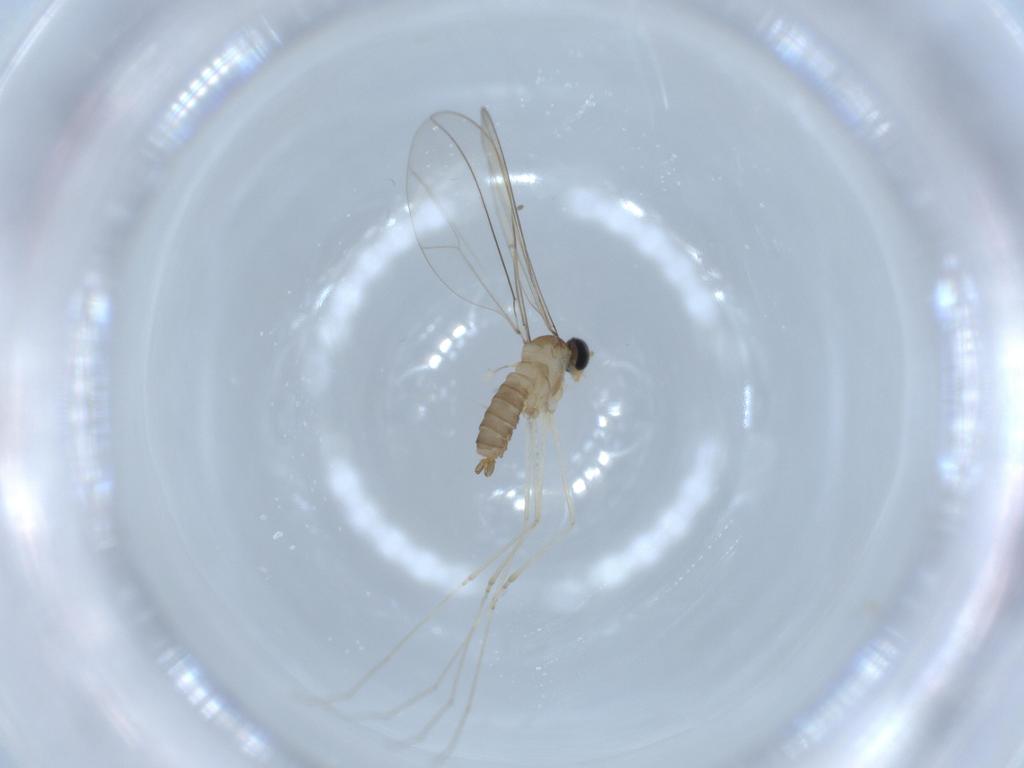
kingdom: Animalia
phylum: Arthropoda
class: Insecta
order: Diptera
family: Cecidomyiidae
